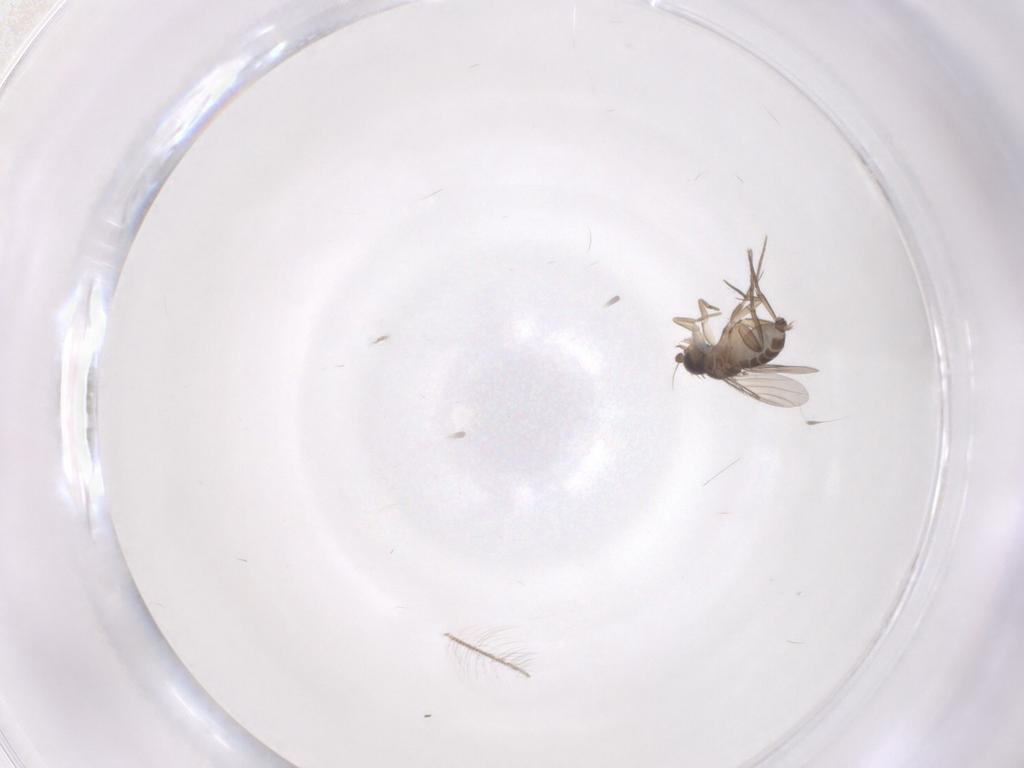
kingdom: Animalia
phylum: Arthropoda
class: Insecta
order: Diptera
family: Chironomidae
